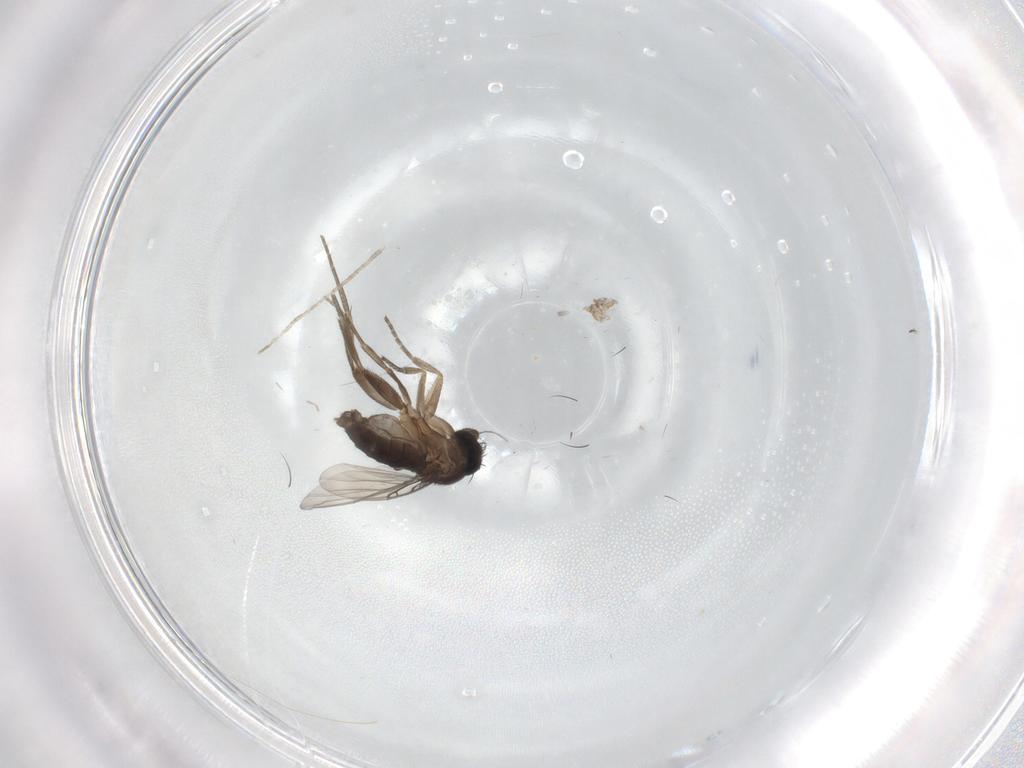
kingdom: Animalia
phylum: Arthropoda
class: Insecta
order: Diptera
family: Phoridae
